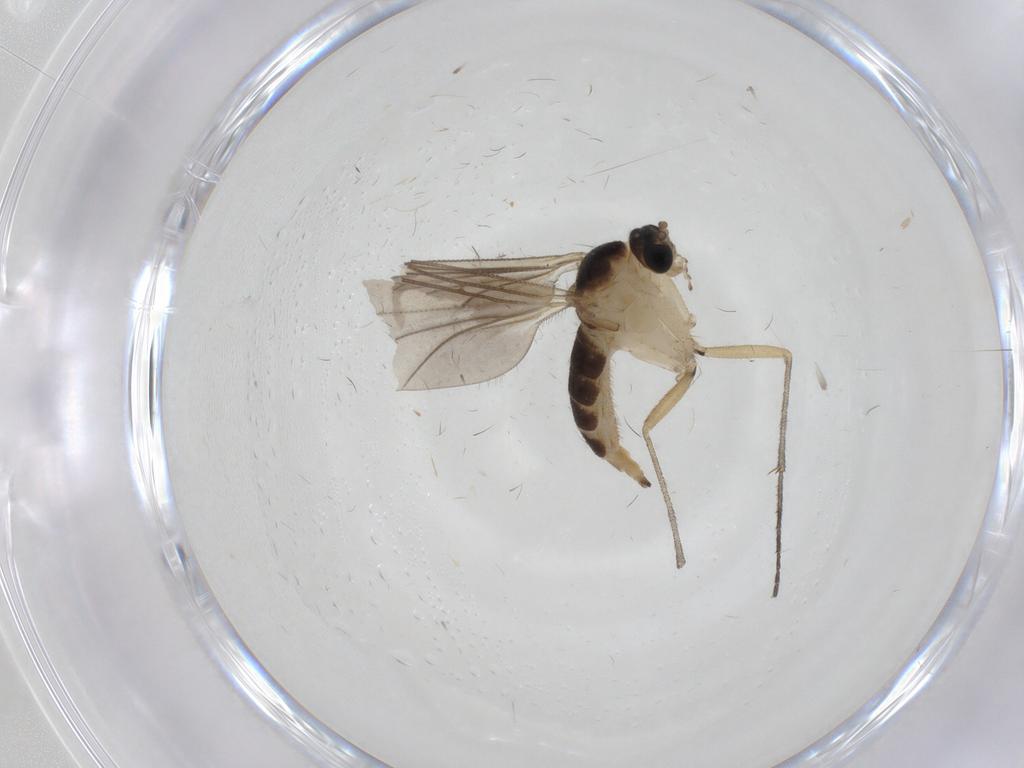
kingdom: Animalia
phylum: Arthropoda
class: Insecta
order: Diptera
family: Sciaridae
